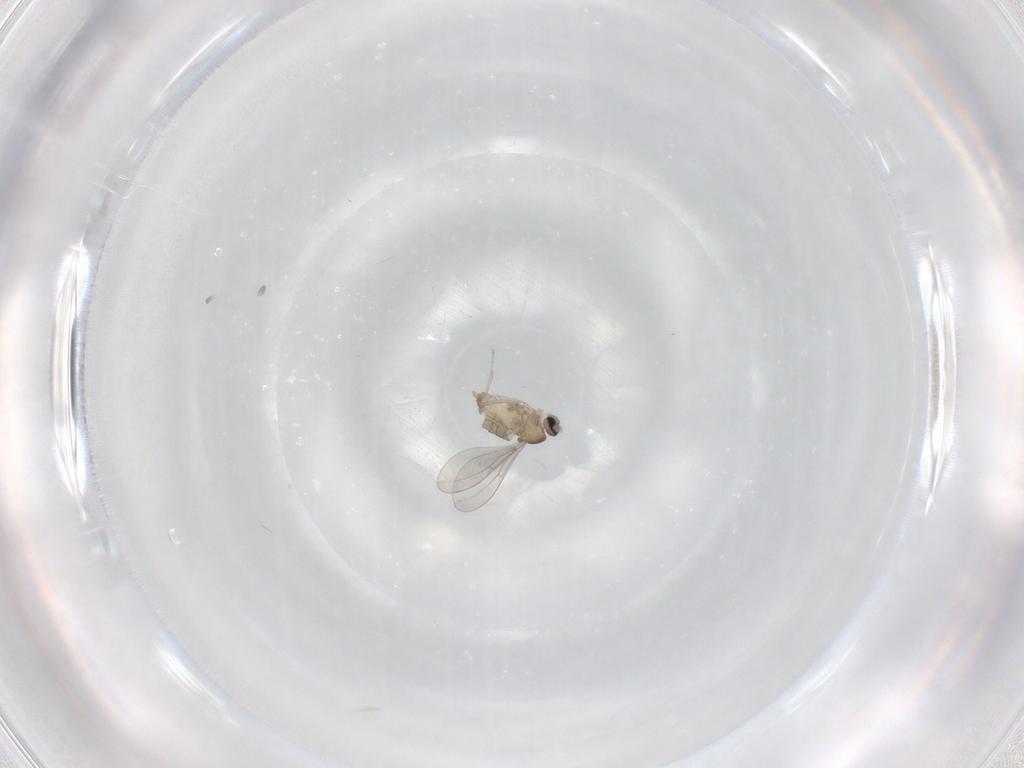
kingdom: Animalia
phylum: Arthropoda
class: Insecta
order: Diptera
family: Cecidomyiidae
